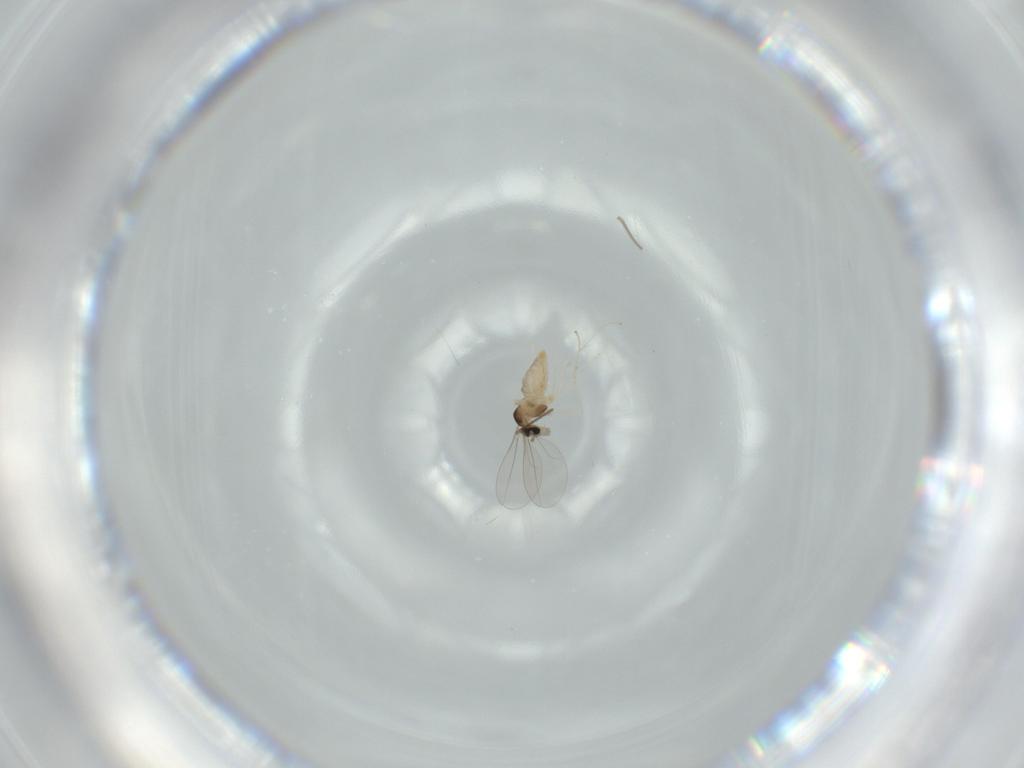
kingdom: Animalia
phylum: Arthropoda
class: Insecta
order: Diptera
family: Cecidomyiidae
